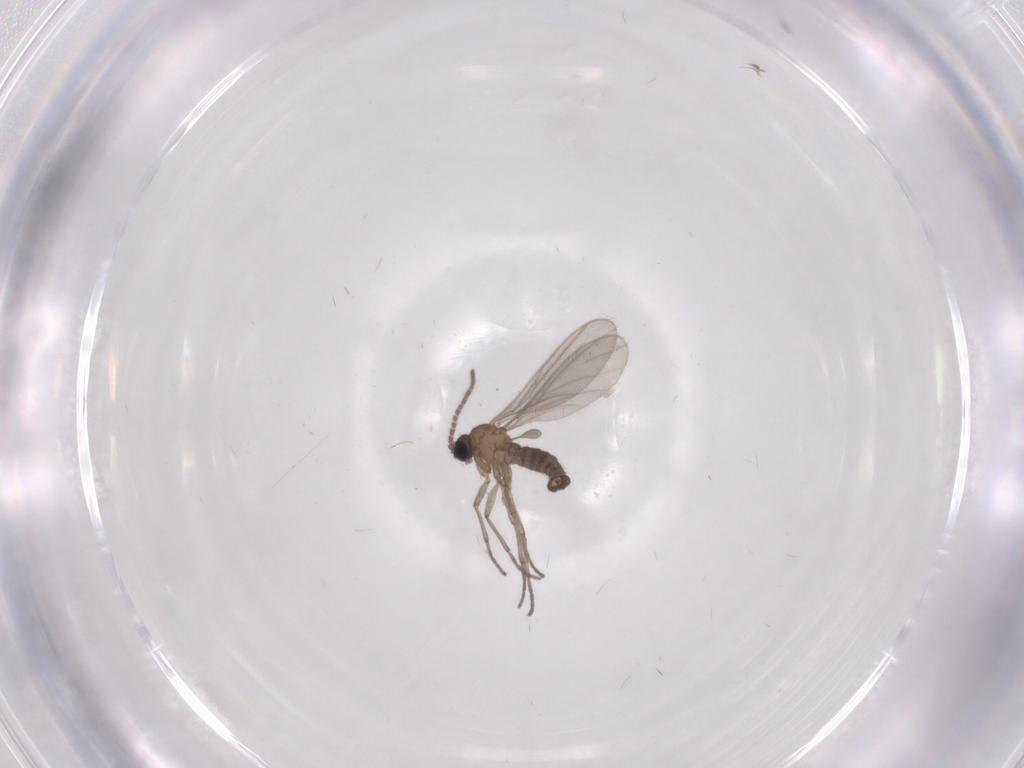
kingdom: Animalia
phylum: Arthropoda
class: Insecta
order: Diptera
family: Sciaridae
